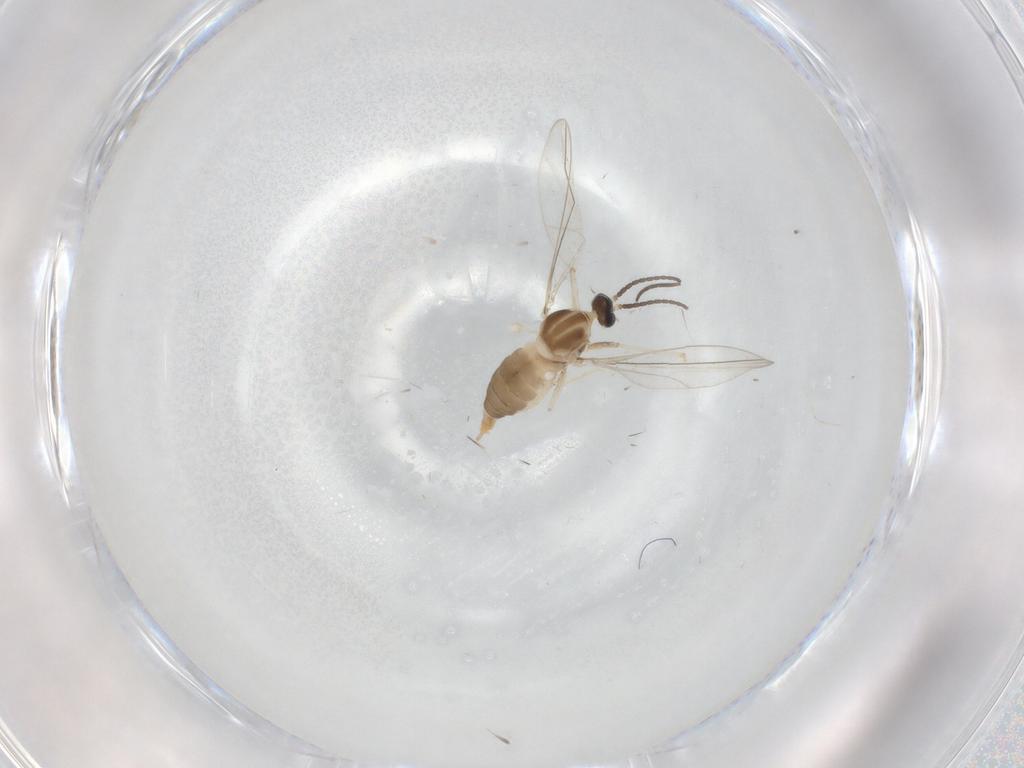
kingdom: Animalia
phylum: Arthropoda
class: Insecta
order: Diptera
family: Cecidomyiidae
